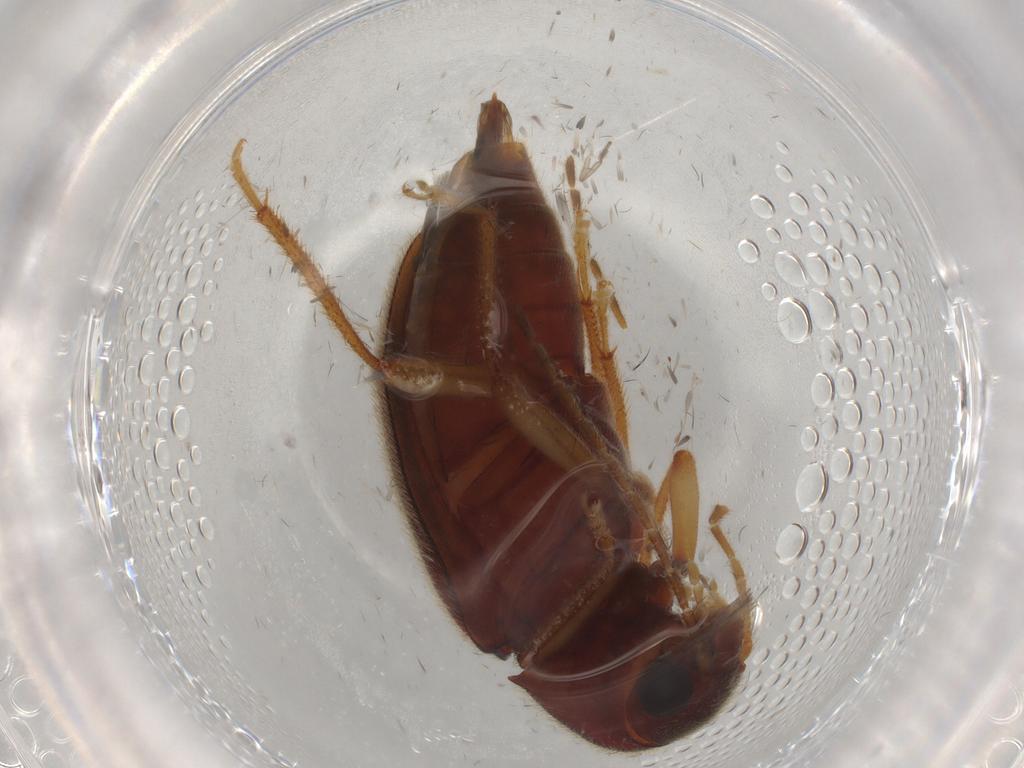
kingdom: Animalia
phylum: Arthropoda
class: Insecta
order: Coleoptera
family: Ptilodactylidae
